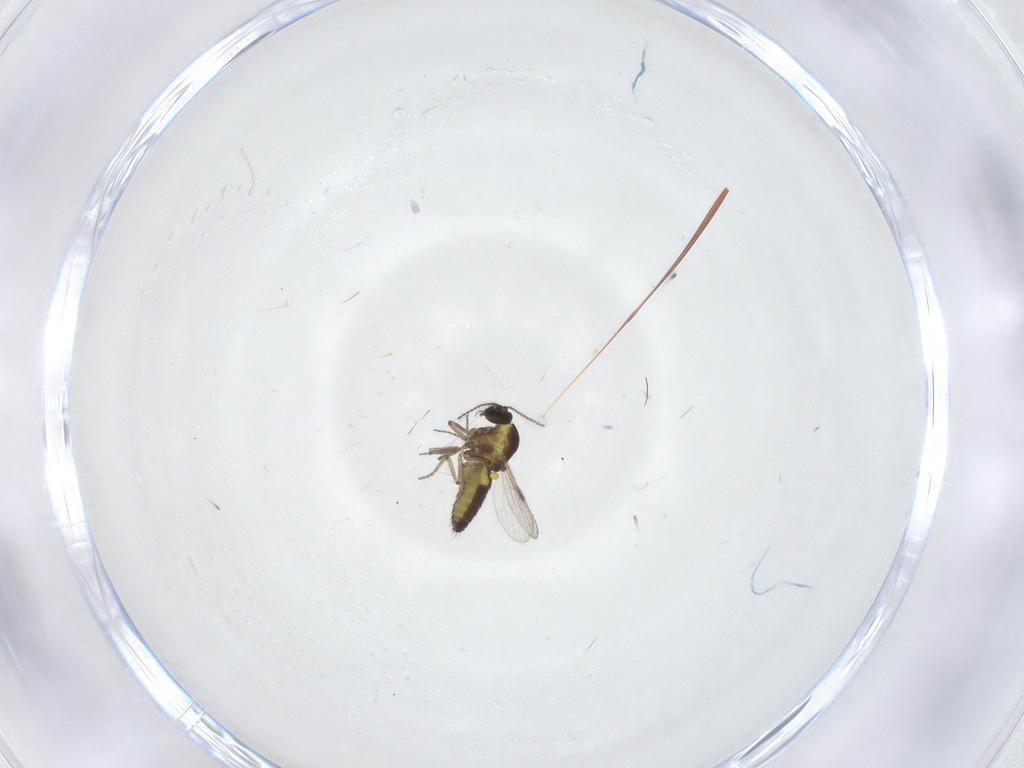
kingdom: Animalia
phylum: Arthropoda
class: Insecta
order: Diptera
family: Ceratopogonidae
